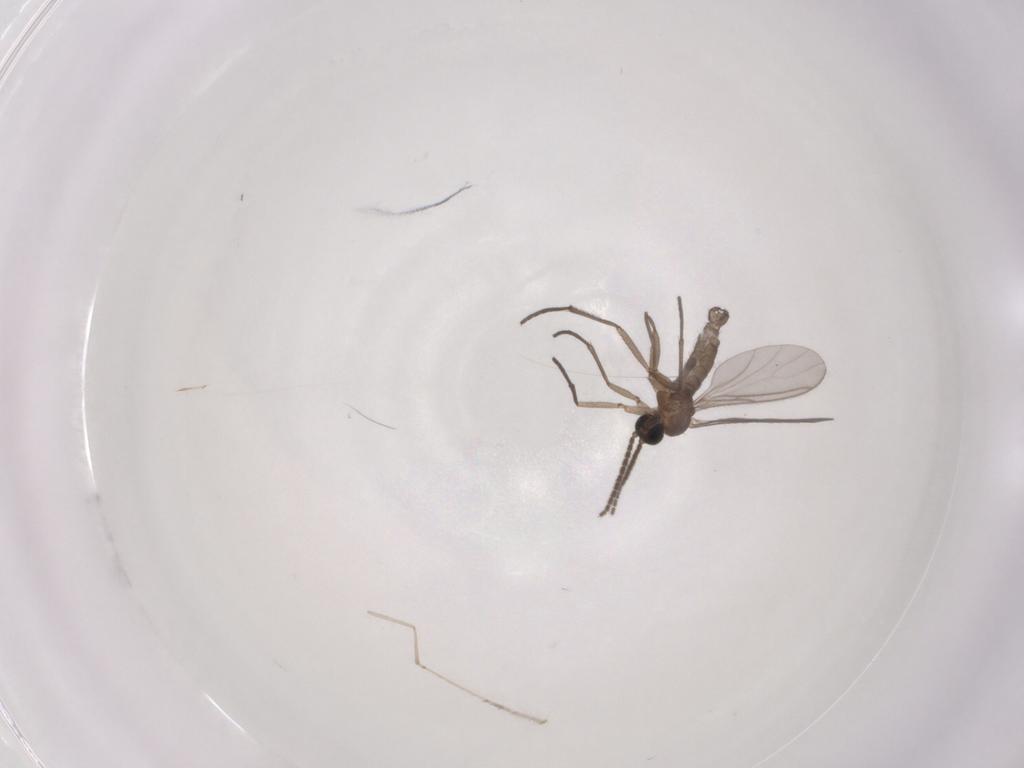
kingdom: Animalia
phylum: Arthropoda
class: Insecta
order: Diptera
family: Sciaridae
